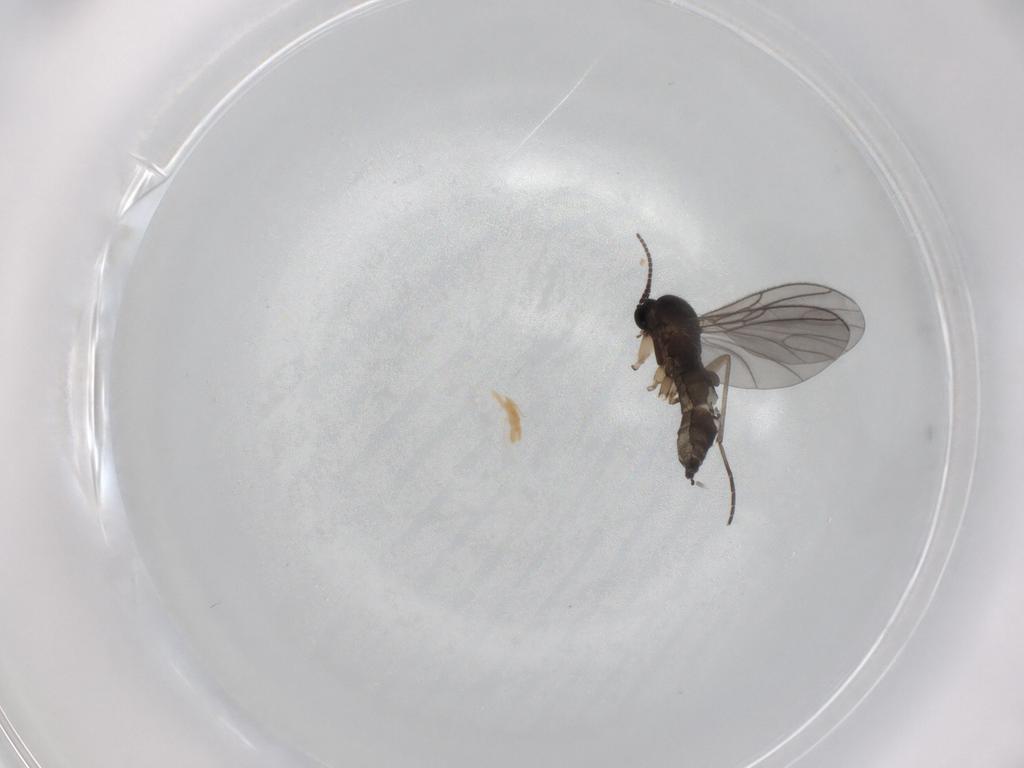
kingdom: Animalia
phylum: Arthropoda
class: Insecta
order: Diptera
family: Sciaridae
